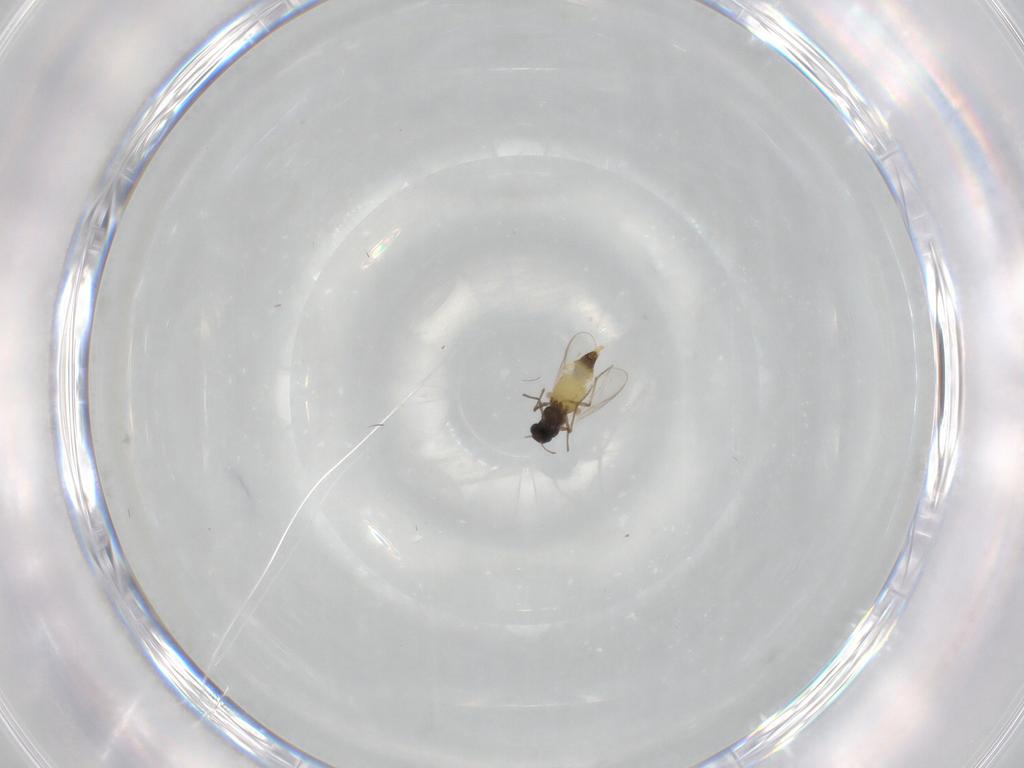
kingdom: Animalia
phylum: Arthropoda
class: Insecta
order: Diptera
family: Chironomidae
